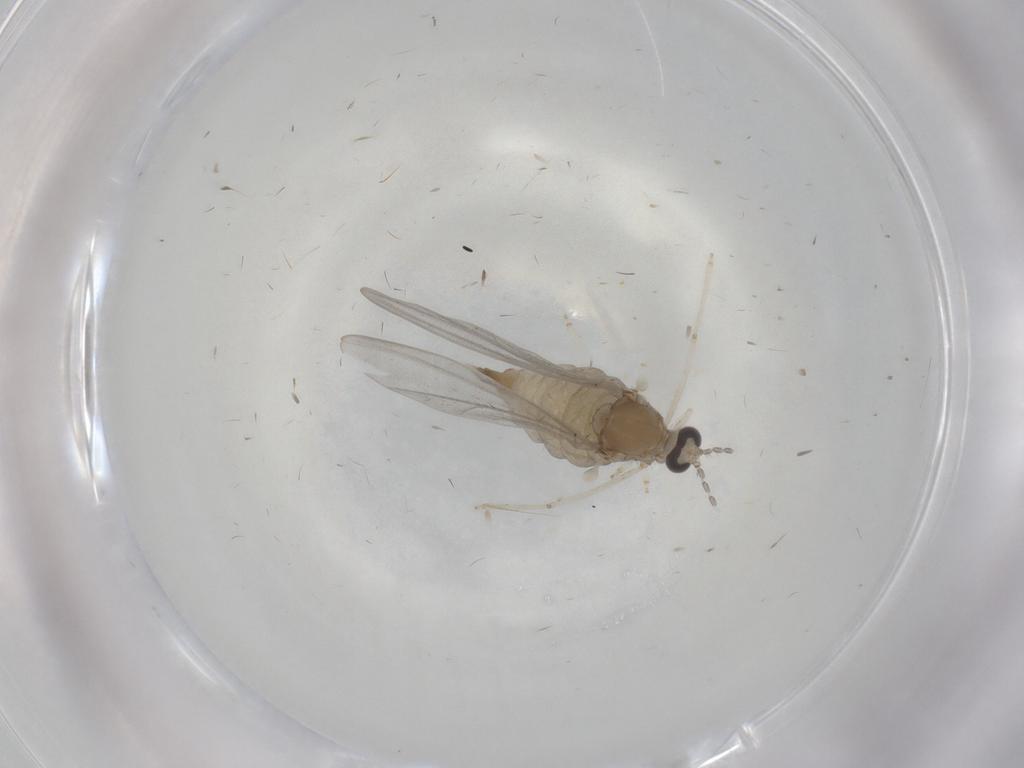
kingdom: Animalia
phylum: Arthropoda
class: Insecta
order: Diptera
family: Cecidomyiidae
